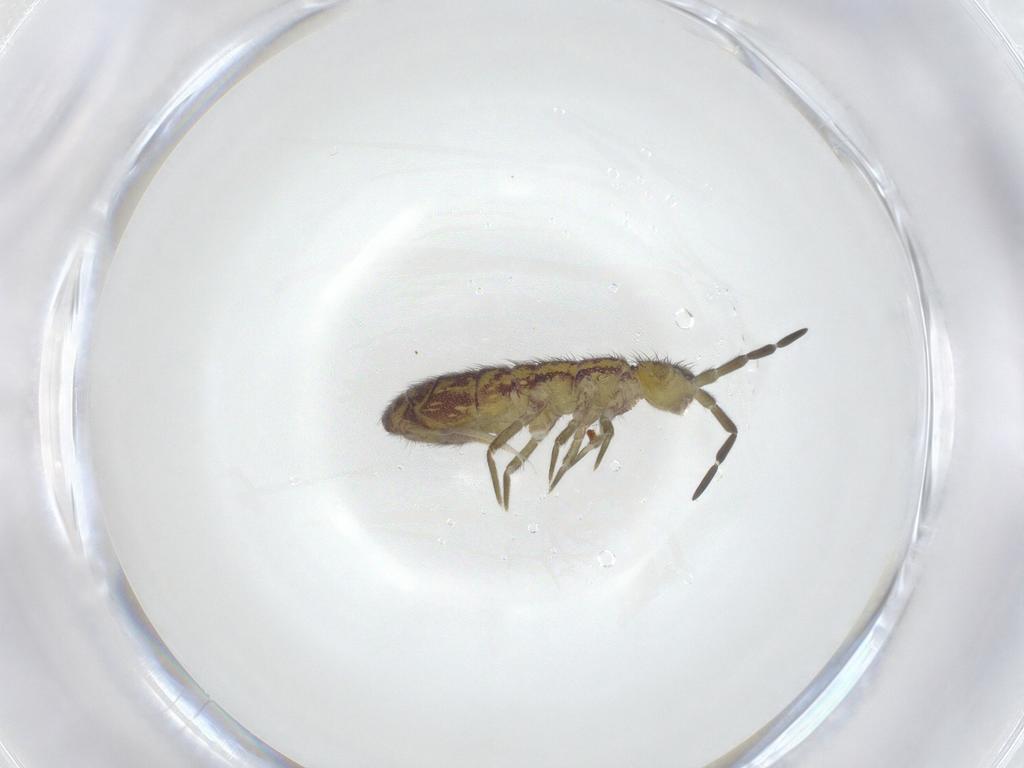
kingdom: Animalia
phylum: Arthropoda
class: Collembola
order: Entomobryomorpha
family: Isotomidae
